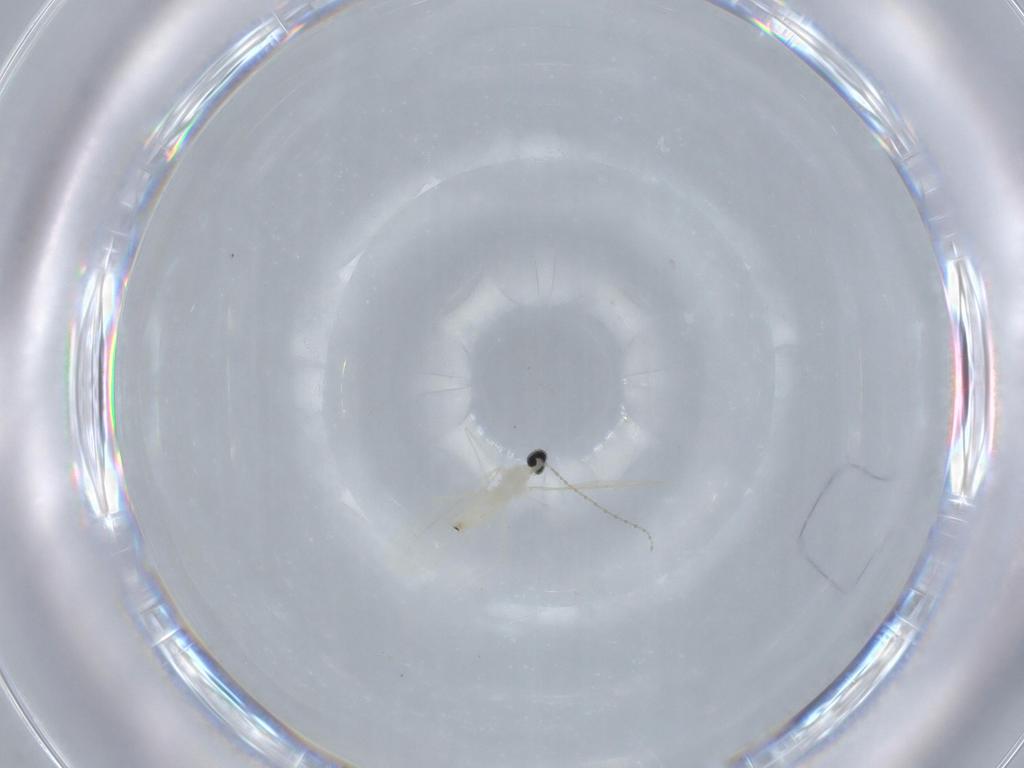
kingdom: Animalia
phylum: Arthropoda
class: Insecta
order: Diptera
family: Cecidomyiidae
